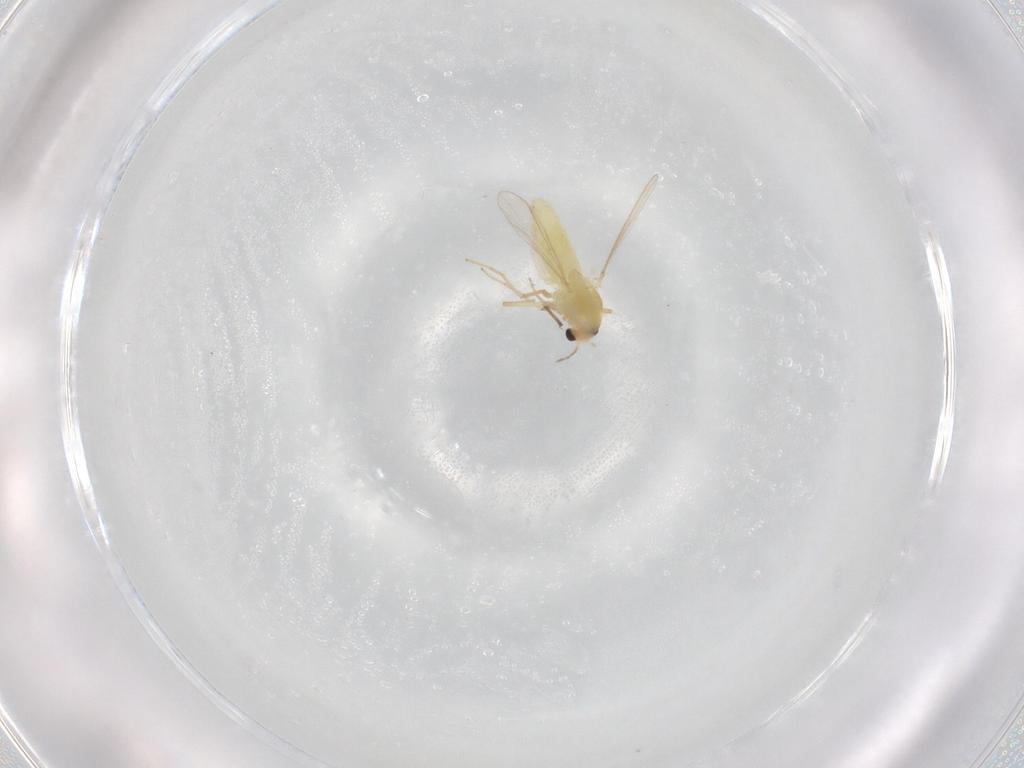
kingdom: Animalia
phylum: Arthropoda
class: Insecta
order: Diptera
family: Chironomidae
